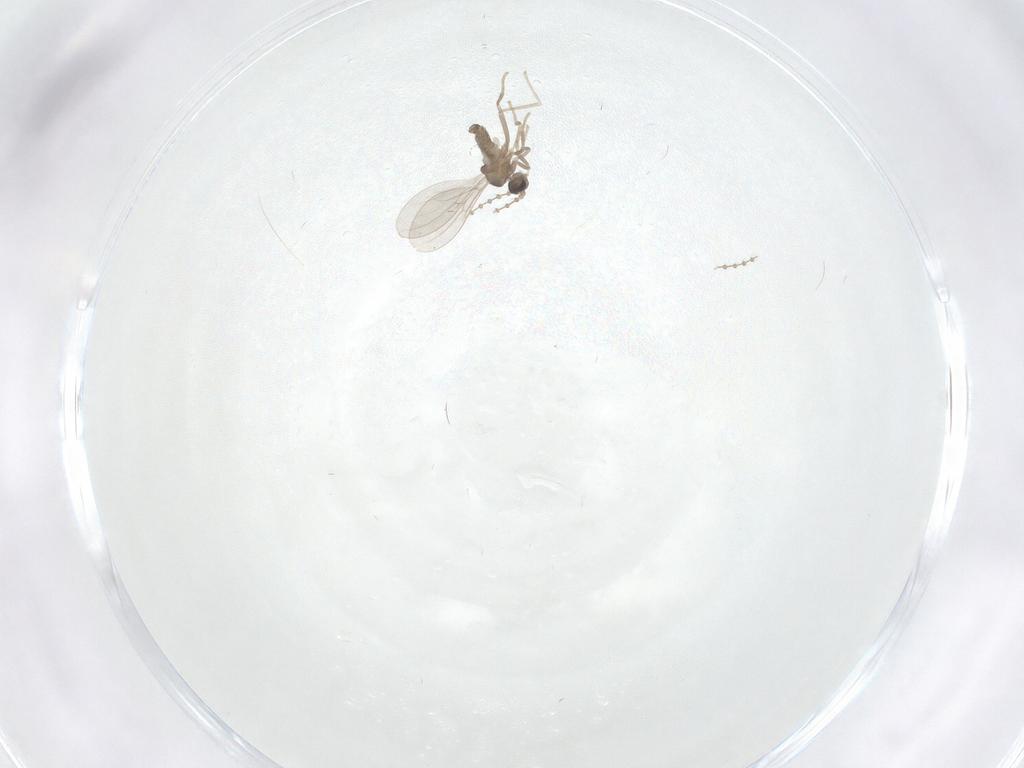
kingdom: Animalia
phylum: Arthropoda
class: Insecta
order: Diptera
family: Cecidomyiidae
